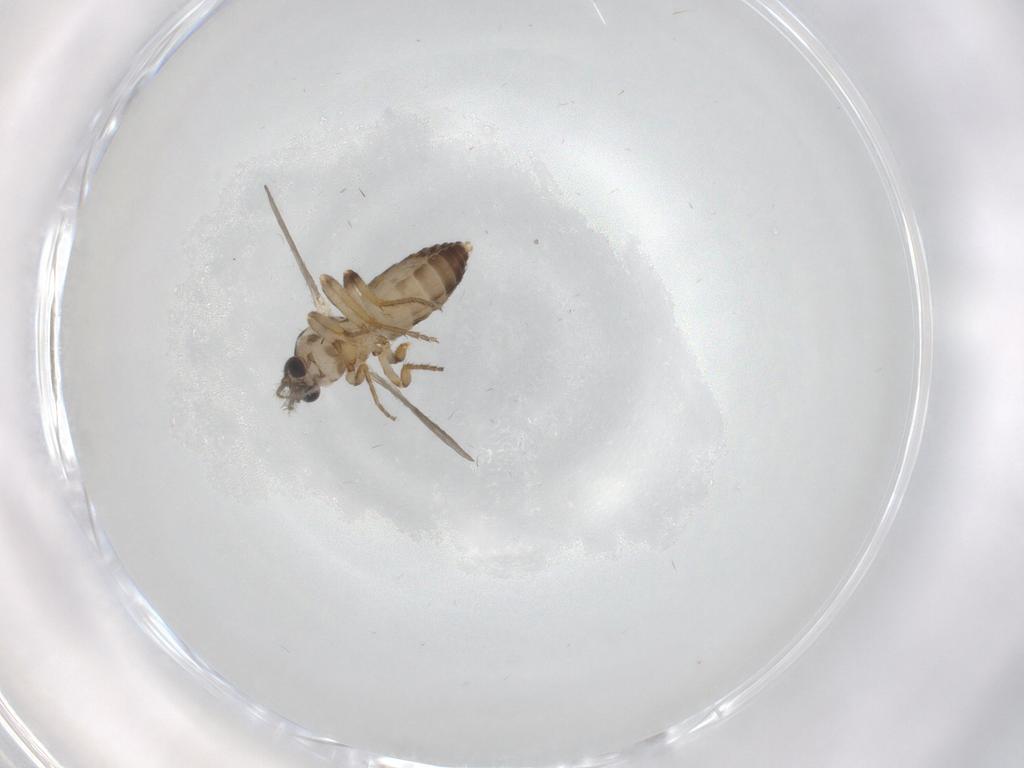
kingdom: Animalia
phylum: Arthropoda
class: Insecta
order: Diptera
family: Ceratopogonidae
